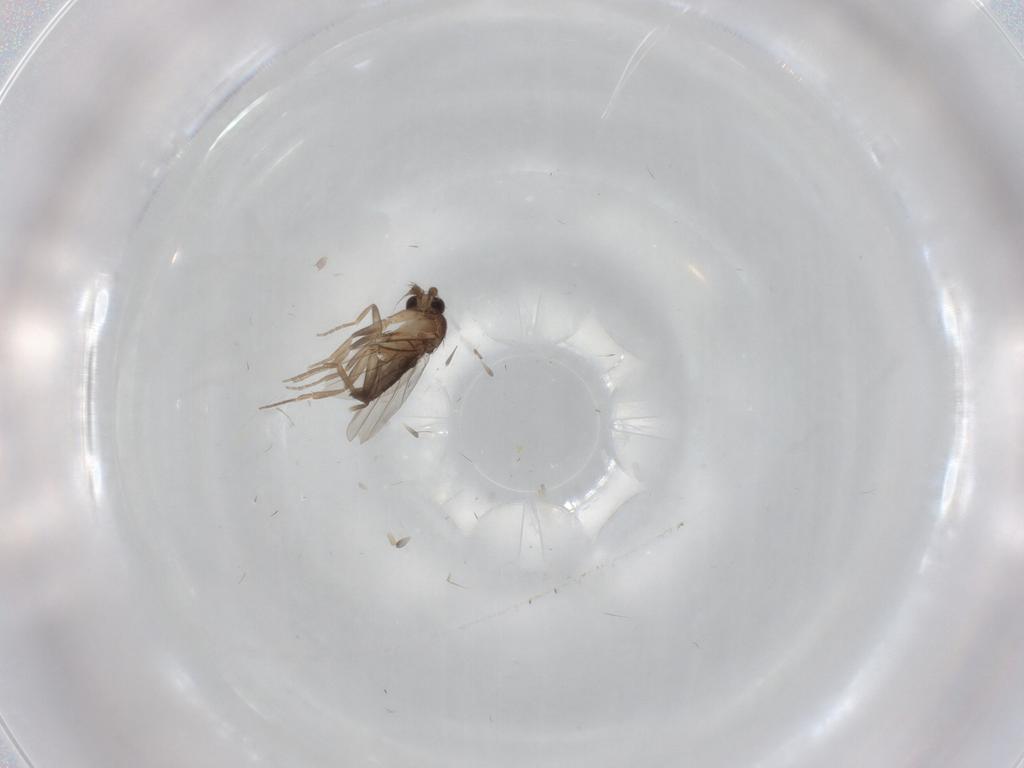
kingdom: Animalia
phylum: Arthropoda
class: Insecta
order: Diptera
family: Phoridae
